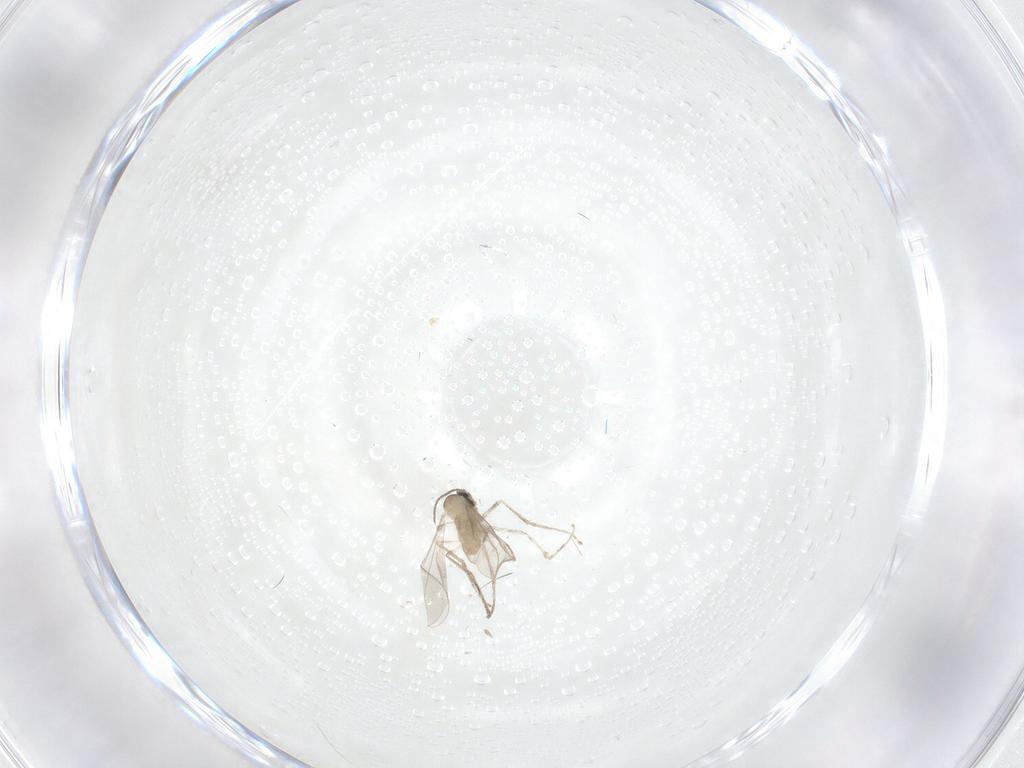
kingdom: Animalia
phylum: Arthropoda
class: Insecta
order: Diptera
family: Cecidomyiidae
